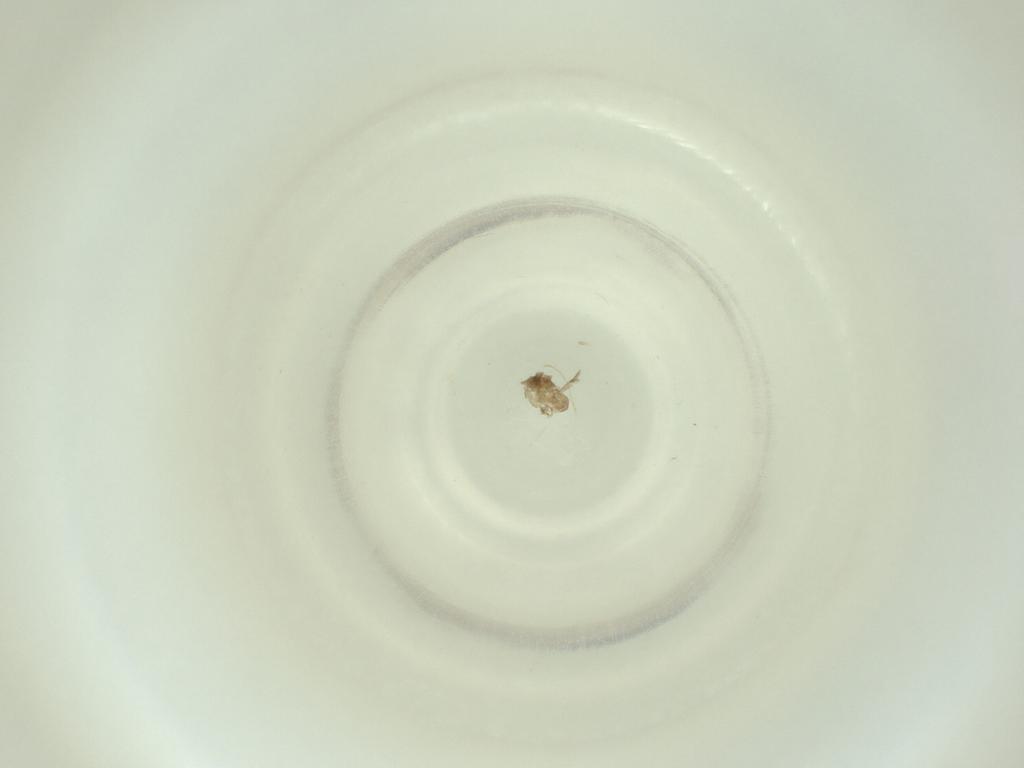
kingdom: Animalia
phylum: Arthropoda
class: Insecta
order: Diptera
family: Cecidomyiidae
